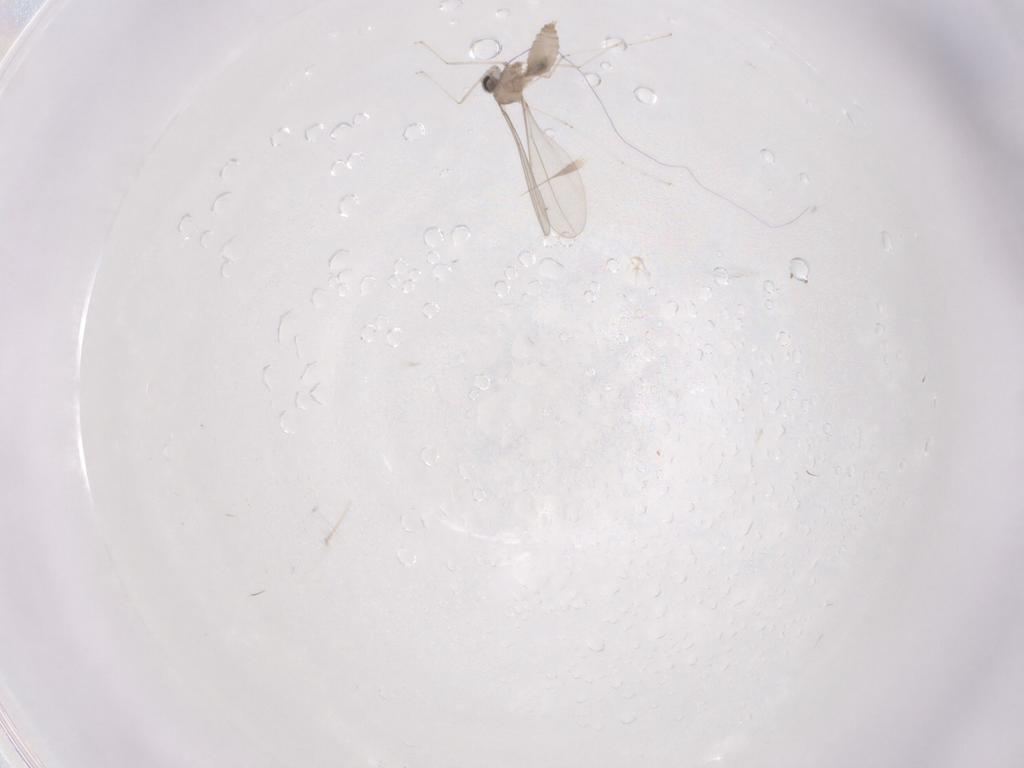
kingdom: Animalia
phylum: Arthropoda
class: Insecta
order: Diptera
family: Cecidomyiidae
